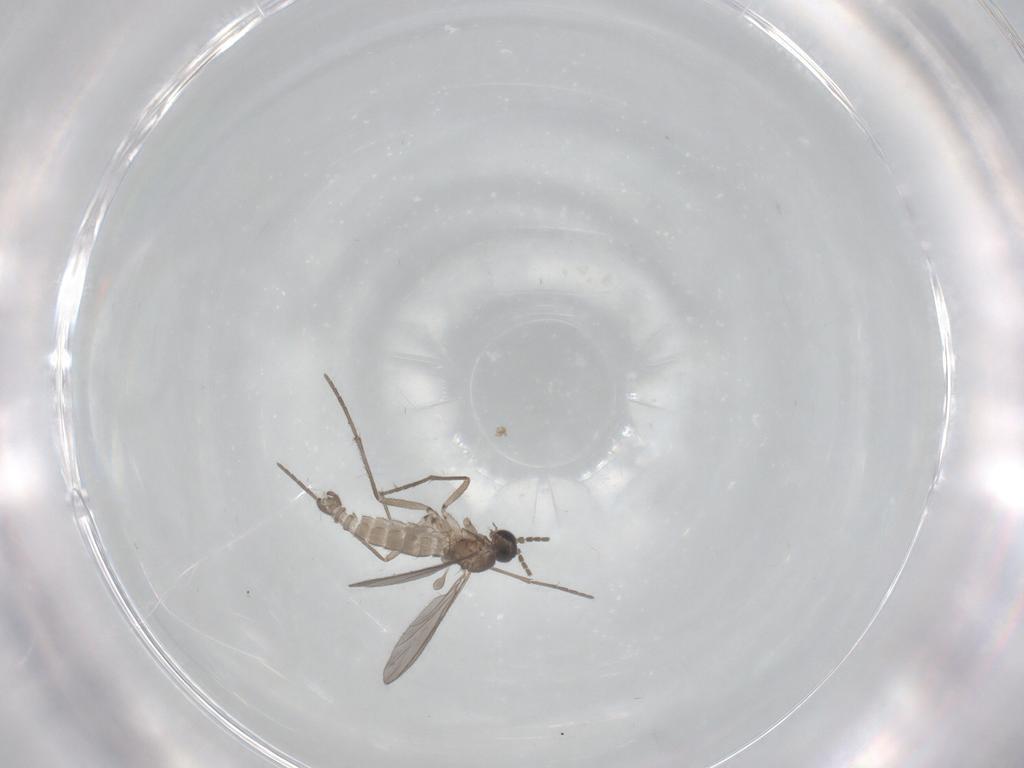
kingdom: Animalia
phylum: Arthropoda
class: Insecta
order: Diptera
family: Sciaridae
